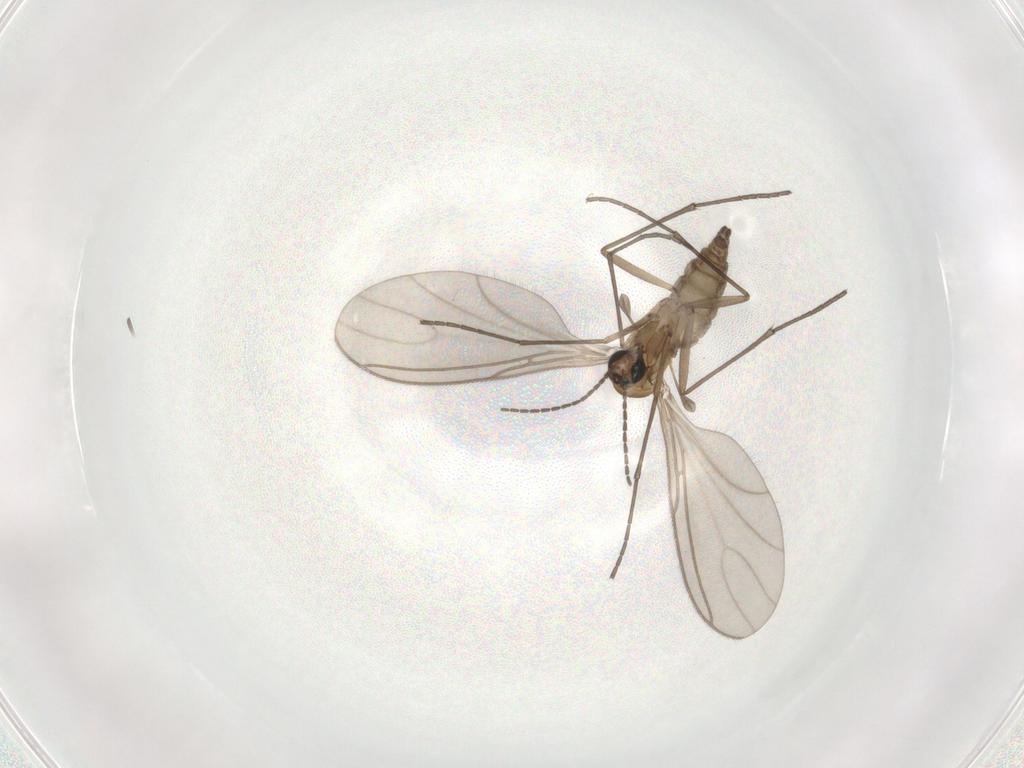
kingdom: Animalia
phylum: Arthropoda
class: Insecta
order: Diptera
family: Sciaridae
